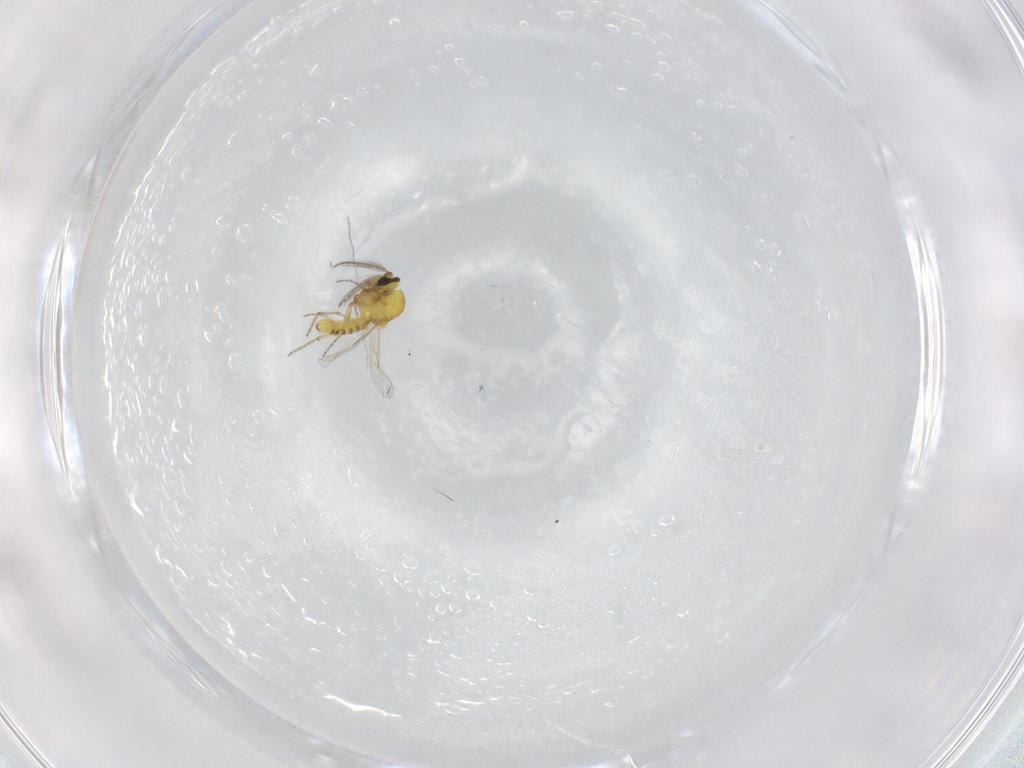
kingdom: Animalia
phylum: Arthropoda
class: Insecta
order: Diptera
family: Ceratopogonidae
